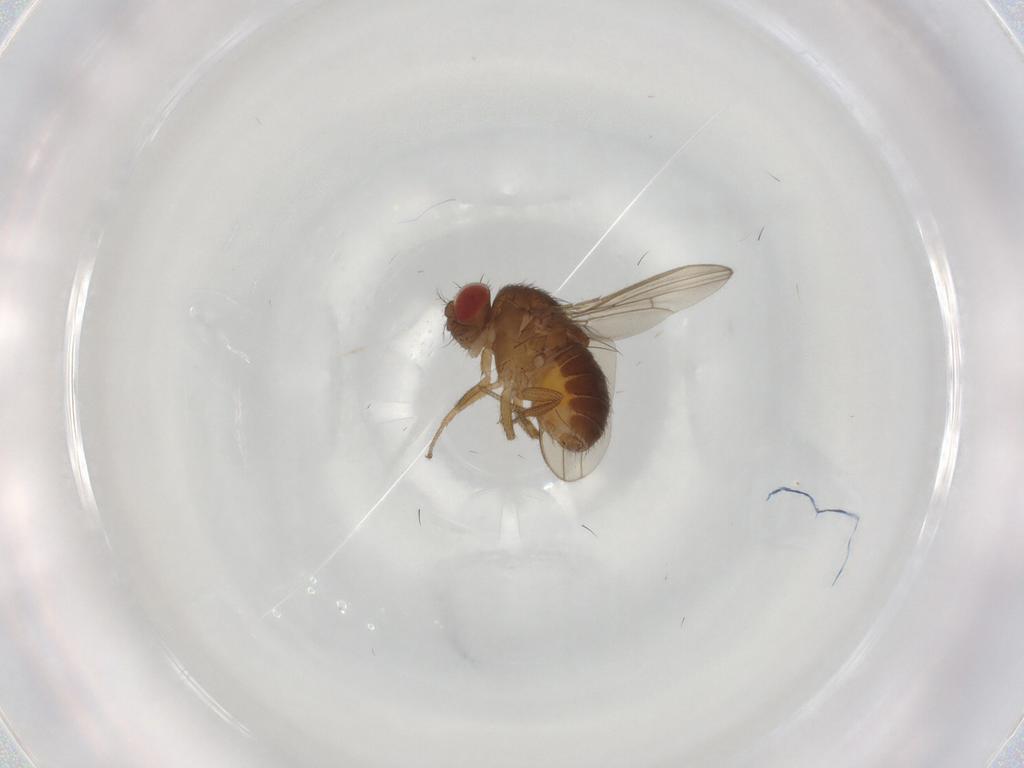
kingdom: Animalia
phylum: Arthropoda
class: Insecta
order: Diptera
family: Drosophilidae
